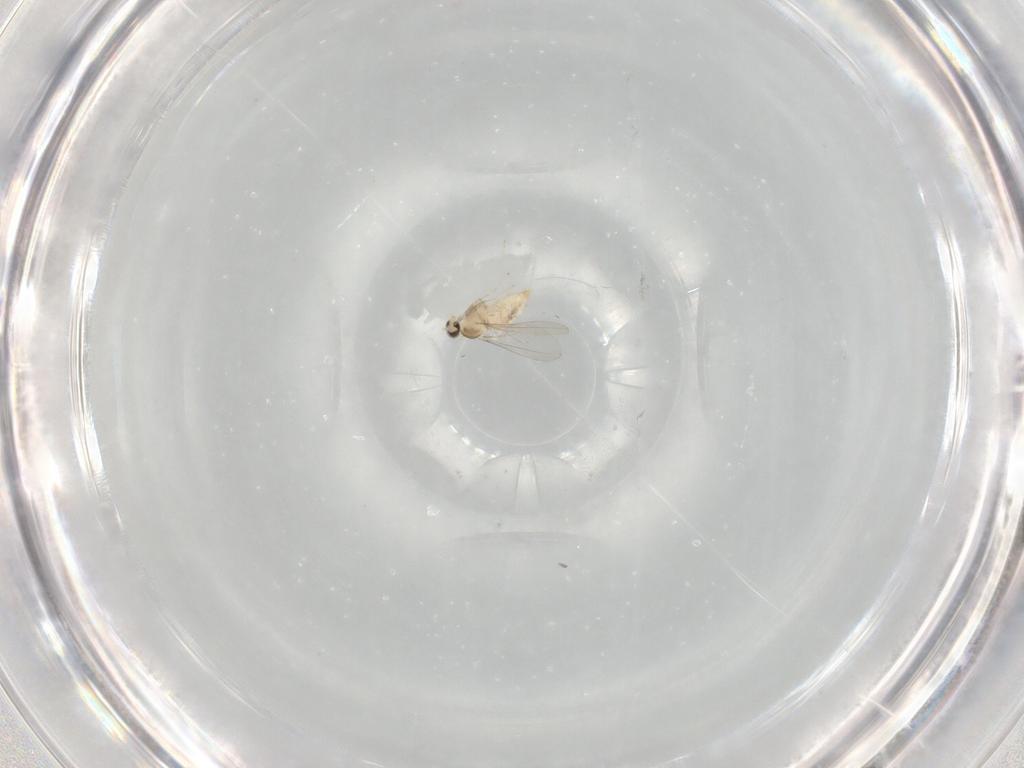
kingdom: Animalia
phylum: Arthropoda
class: Insecta
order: Diptera
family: Cecidomyiidae
